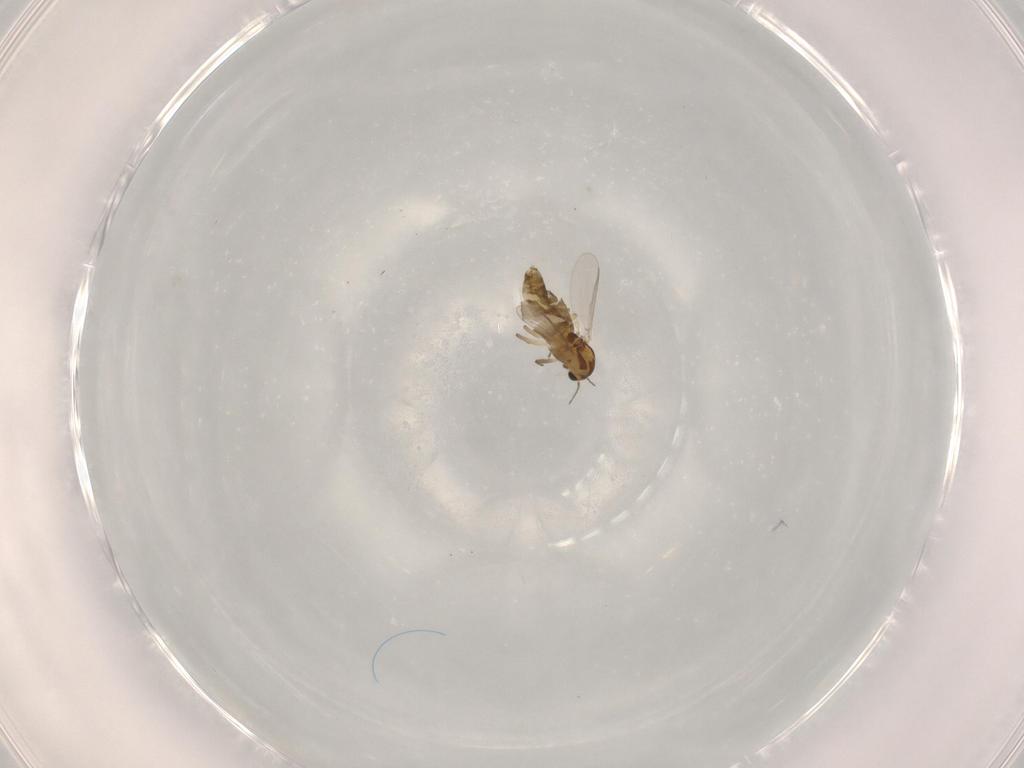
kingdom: Animalia
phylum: Arthropoda
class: Insecta
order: Diptera
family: Chironomidae
